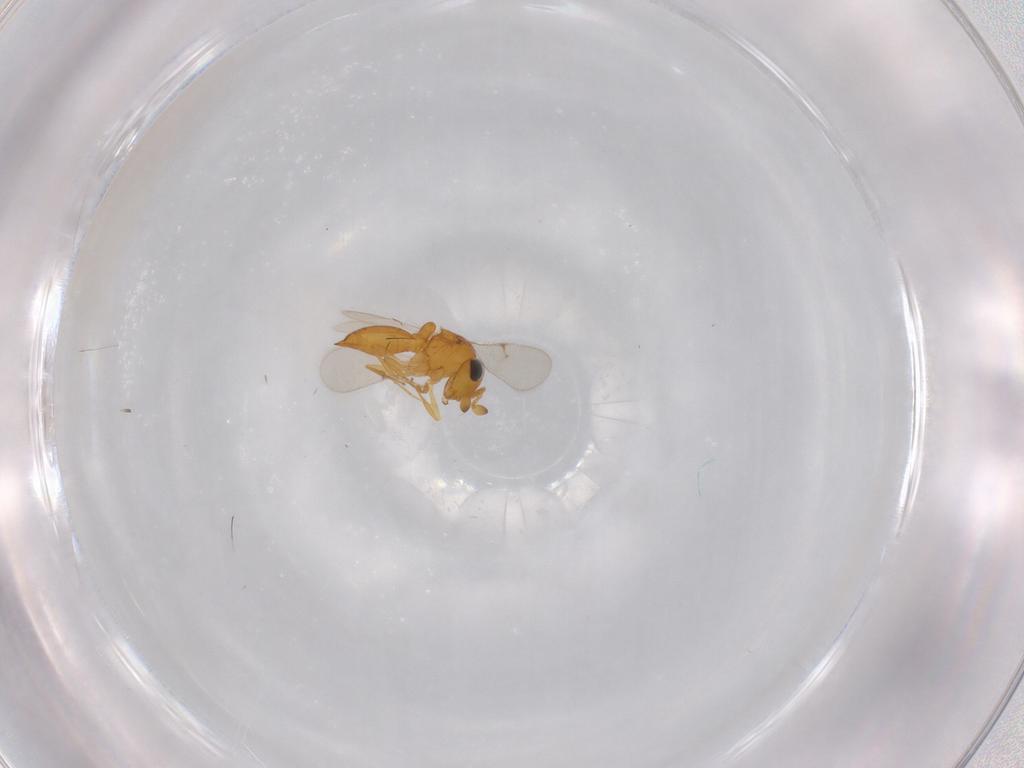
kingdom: Animalia
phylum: Arthropoda
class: Insecta
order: Hymenoptera
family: Scelionidae
